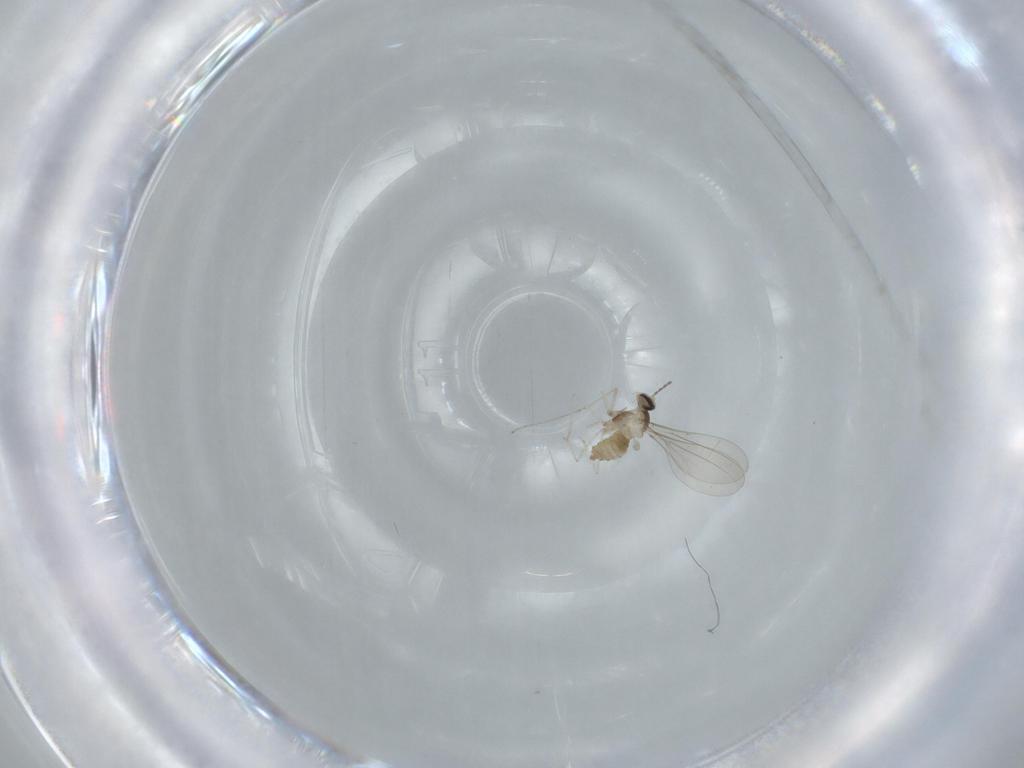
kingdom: Animalia
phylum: Arthropoda
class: Insecta
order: Diptera
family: Cecidomyiidae
